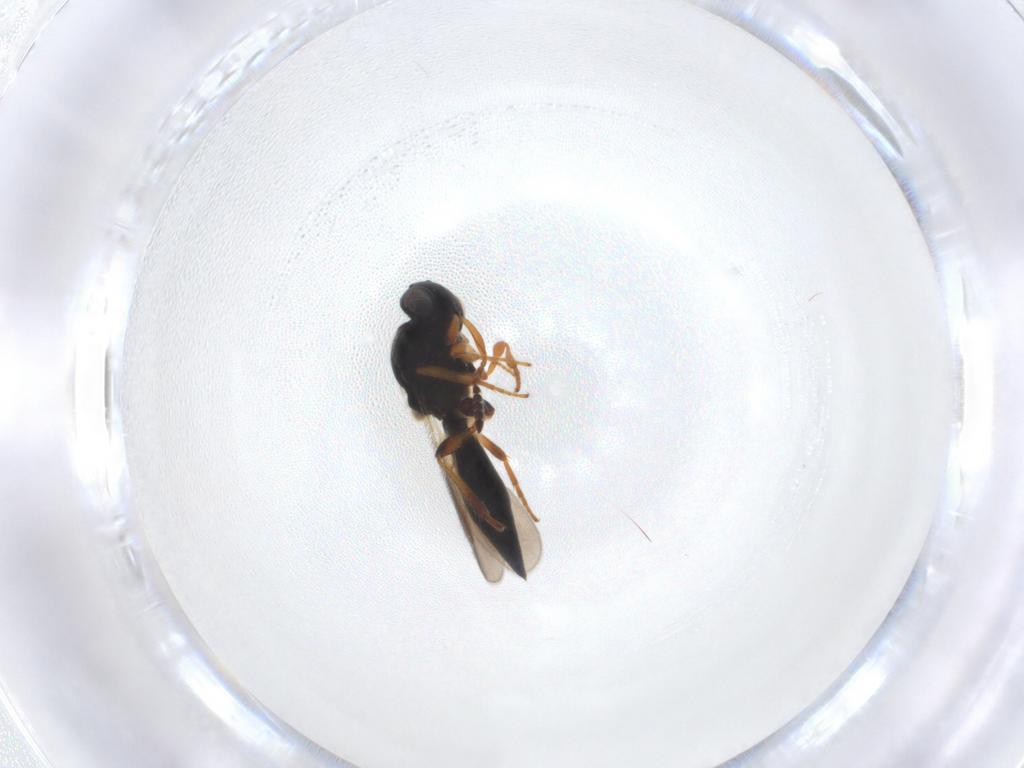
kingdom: Animalia
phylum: Arthropoda
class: Insecta
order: Hymenoptera
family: Platygastridae
